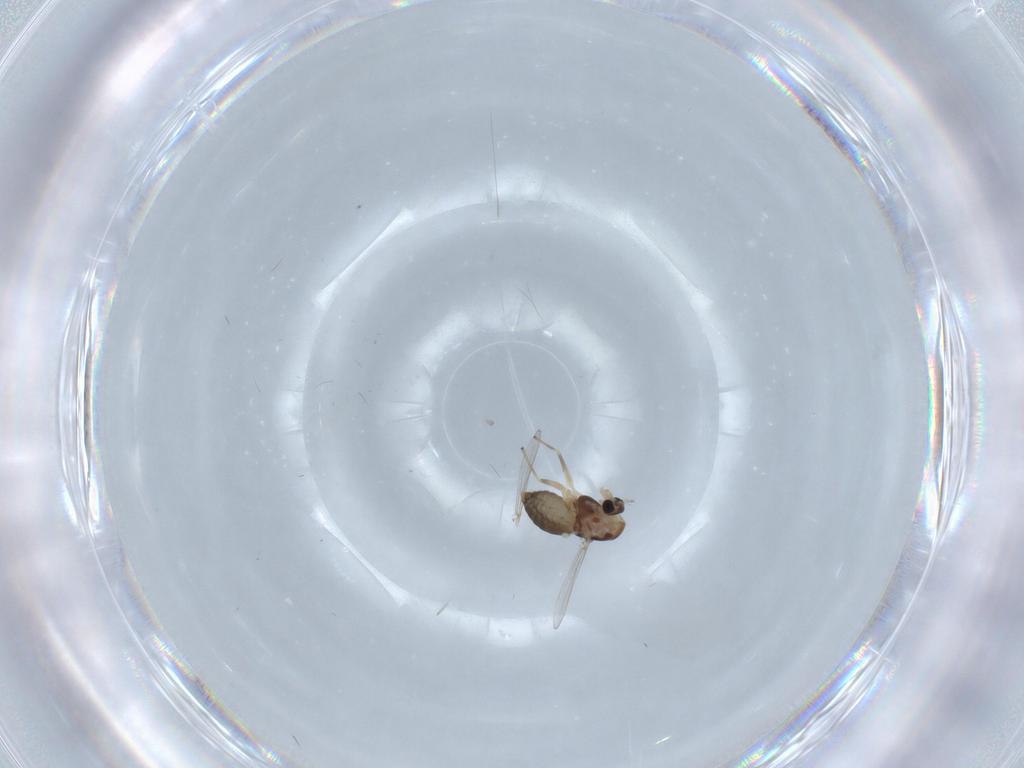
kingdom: Animalia
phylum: Arthropoda
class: Insecta
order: Diptera
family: Chironomidae
